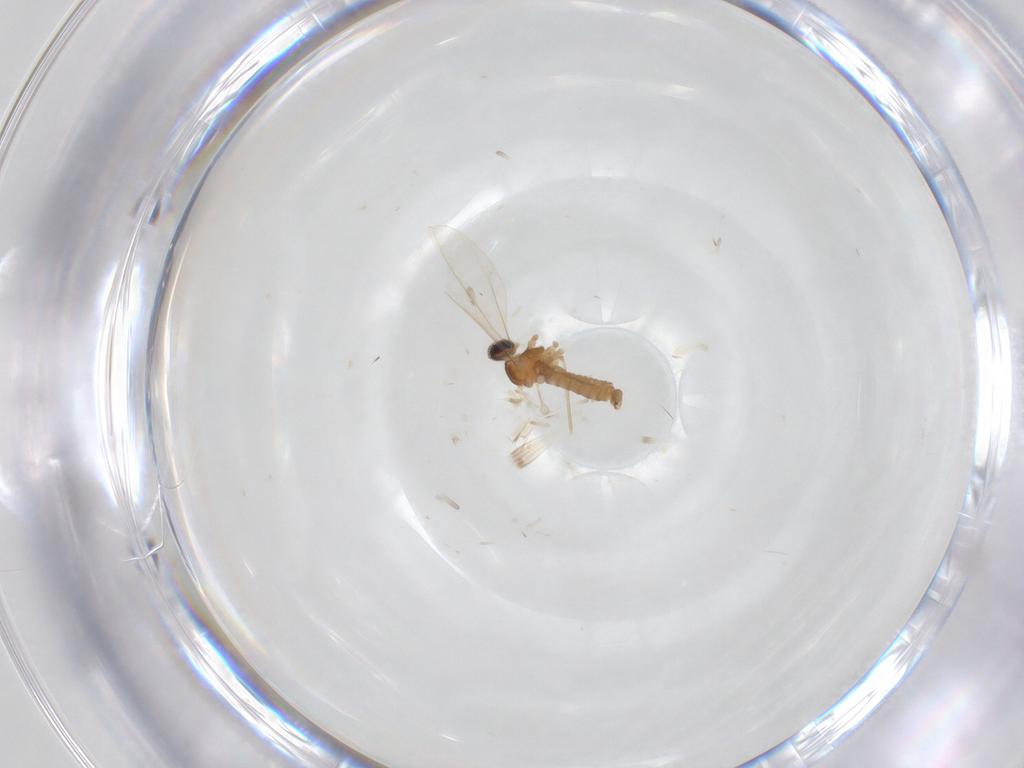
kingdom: Animalia
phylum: Arthropoda
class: Insecta
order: Diptera
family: Cecidomyiidae
